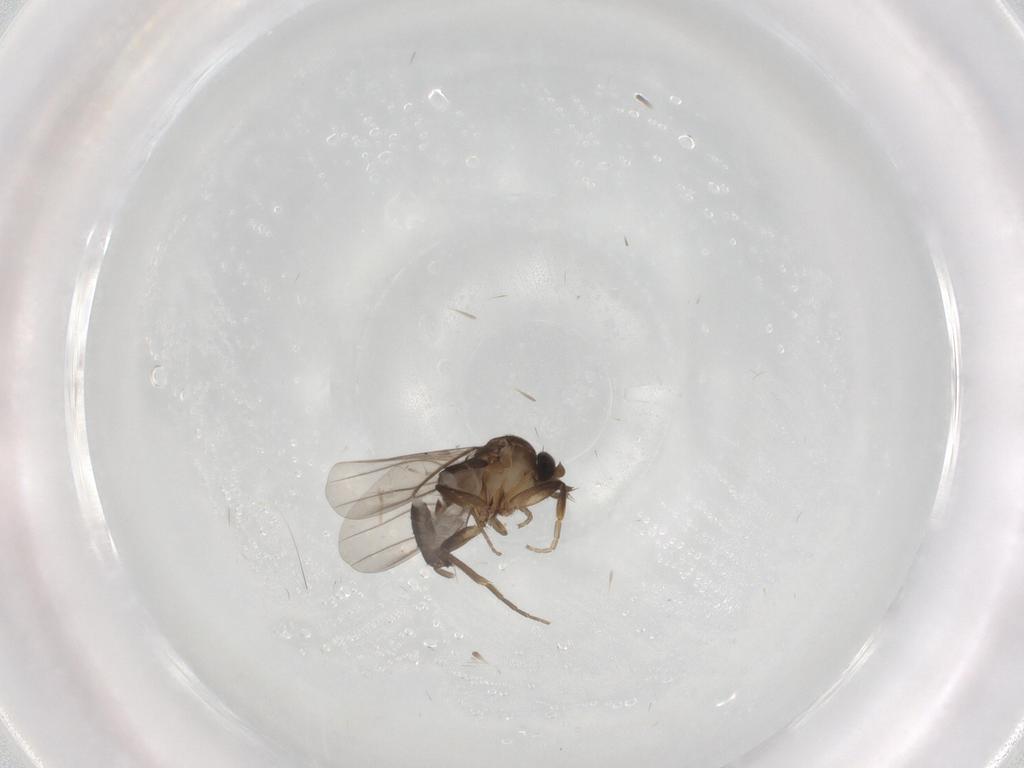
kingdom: Animalia
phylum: Arthropoda
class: Insecta
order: Diptera
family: Phoridae
